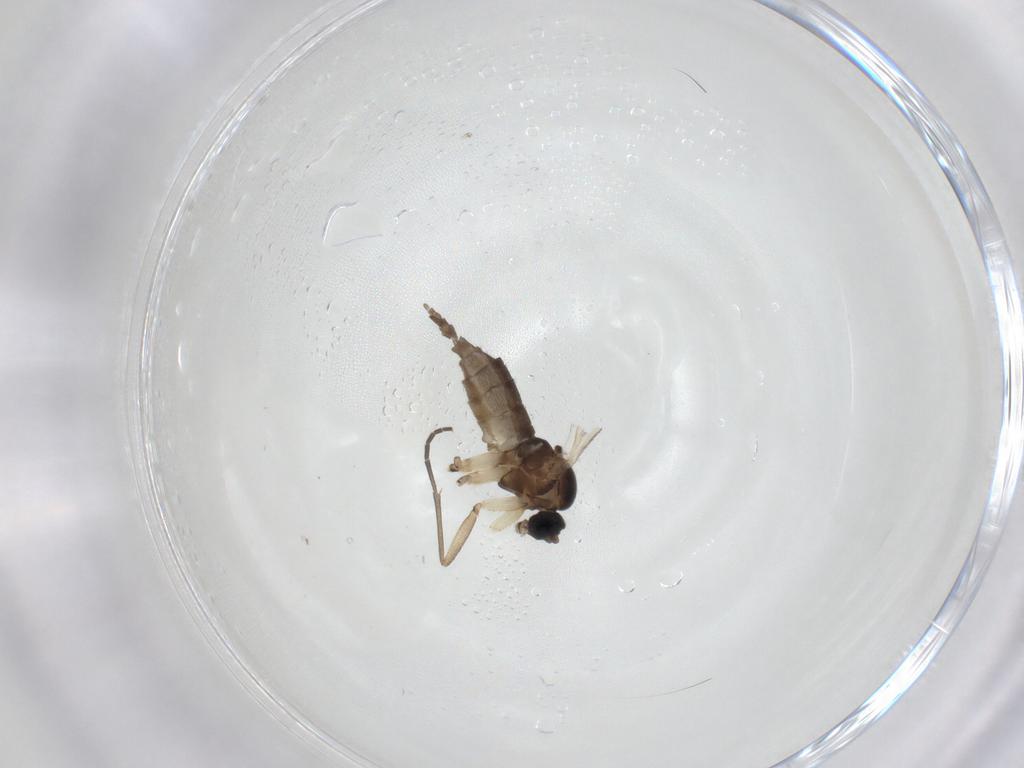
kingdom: Animalia
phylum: Arthropoda
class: Insecta
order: Diptera
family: Sciaridae
